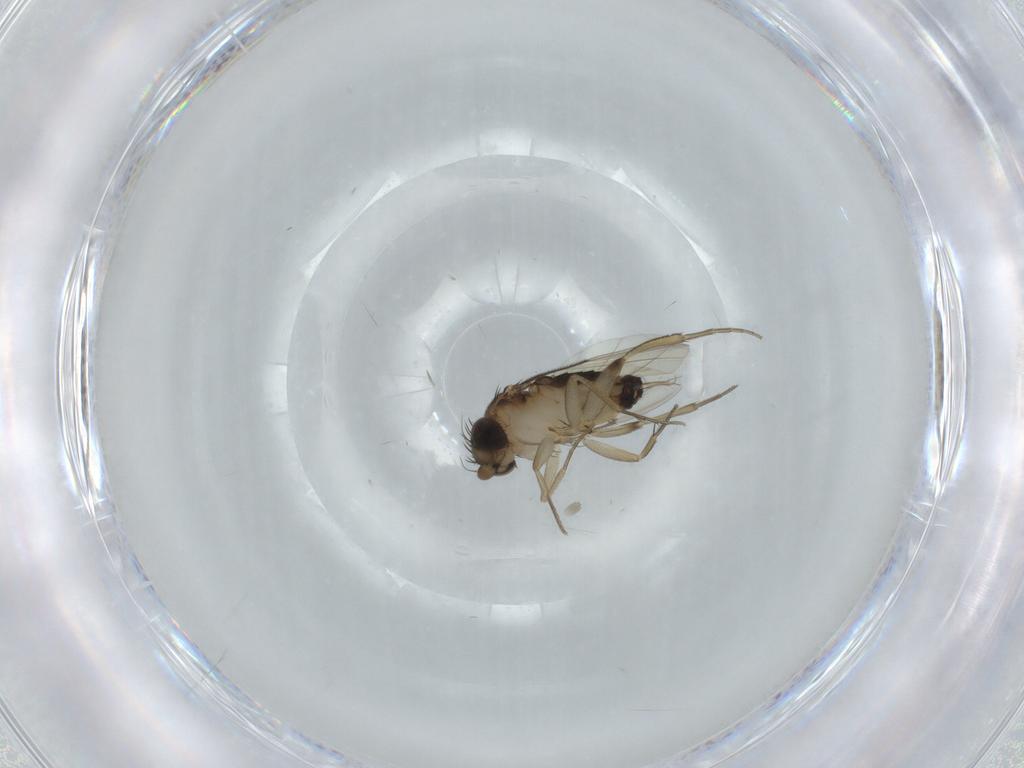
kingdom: Animalia
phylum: Arthropoda
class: Insecta
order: Diptera
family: Phoridae
